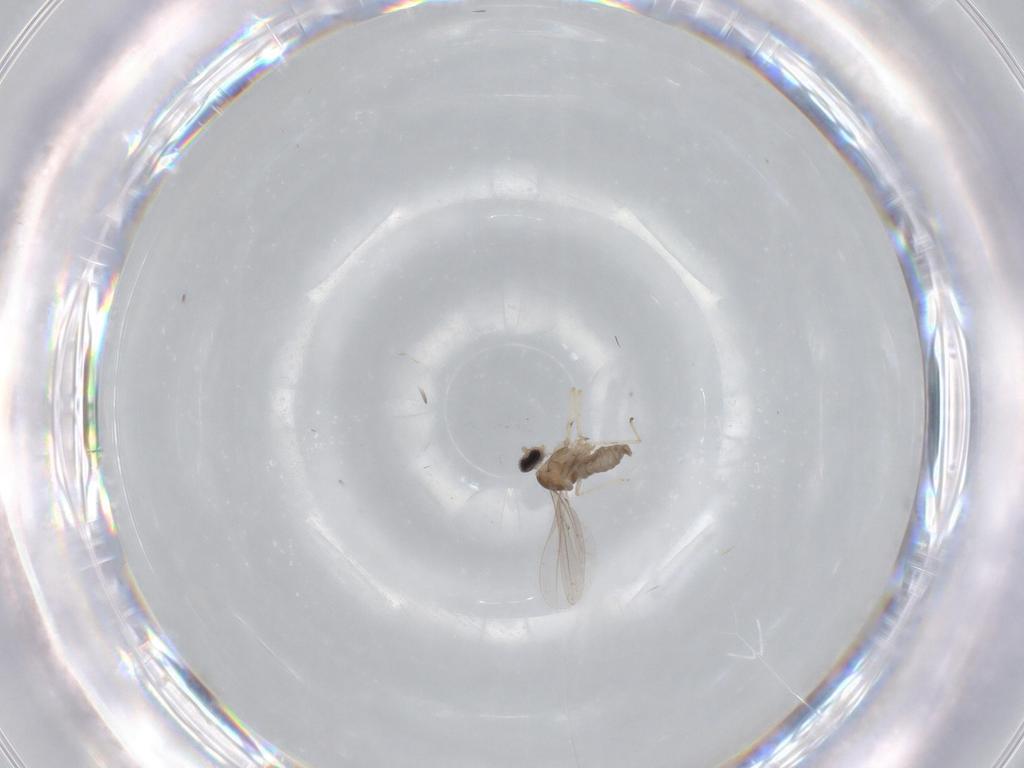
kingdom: Animalia
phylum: Arthropoda
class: Insecta
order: Diptera
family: Cecidomyiidae
